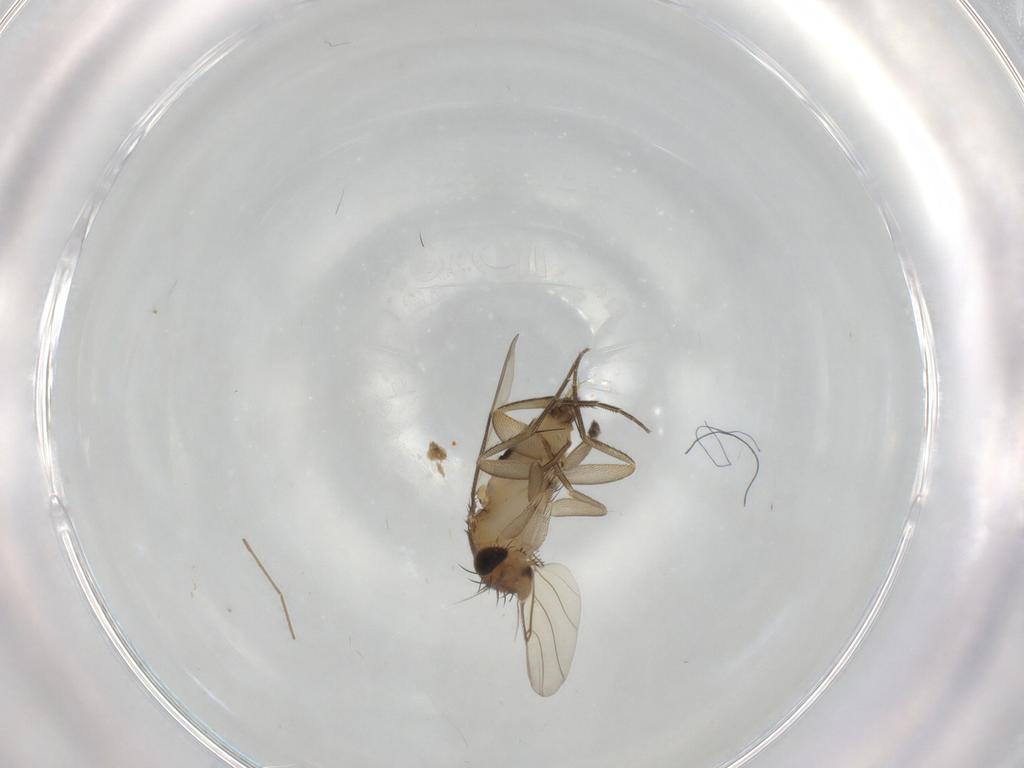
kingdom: Animalia
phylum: Arthropoda
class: Insecta
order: Diptera
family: Phoridae
